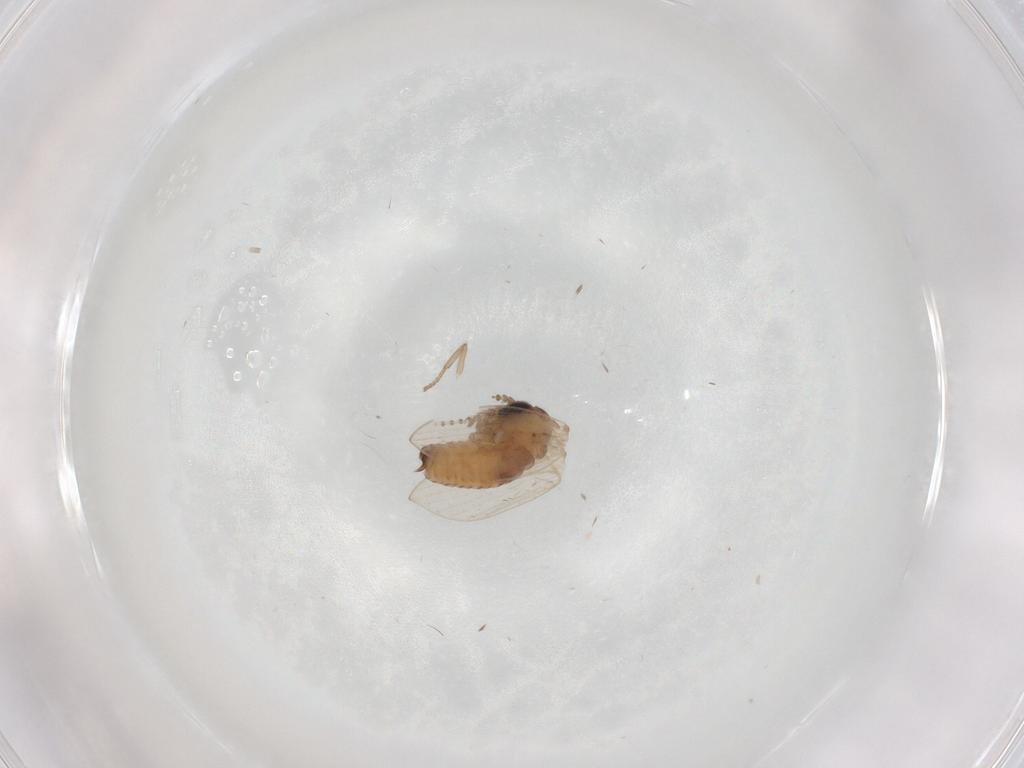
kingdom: Animalia
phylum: Arthropoda
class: Insecta
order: Diptera
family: Psychodidae
